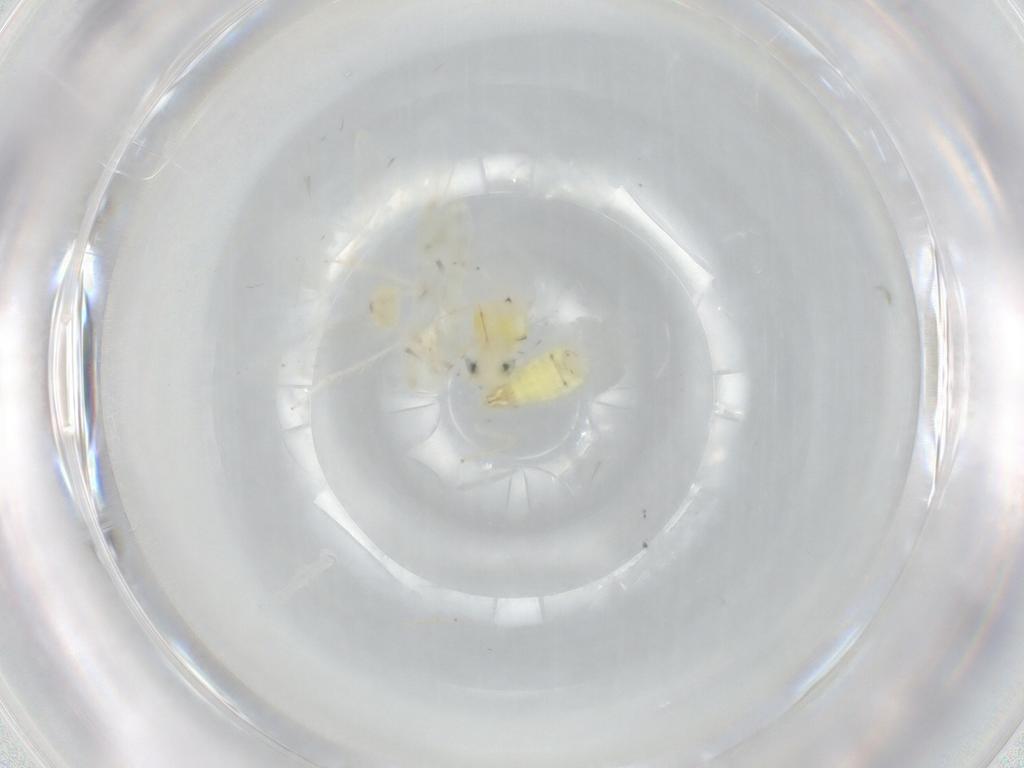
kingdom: Animalia
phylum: Arthropoda
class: Insecta
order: Hemiptera
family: Cicadellidae
